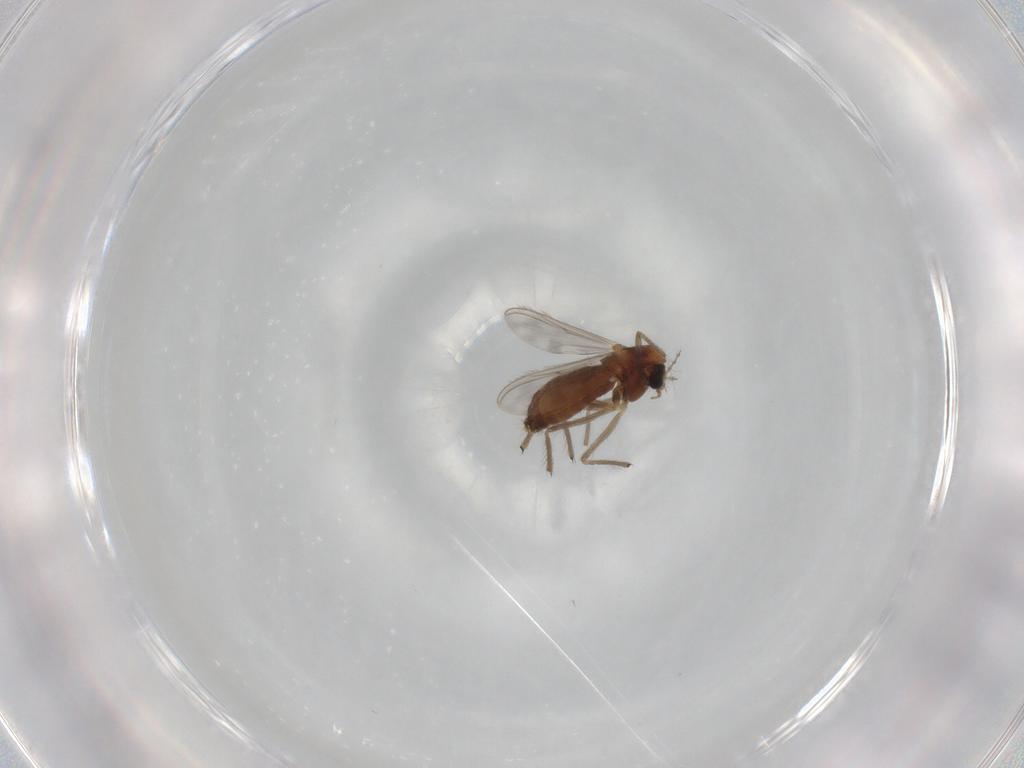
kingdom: Animalia
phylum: Arthropoda
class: Insecta
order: Diptera
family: Chironomidae
